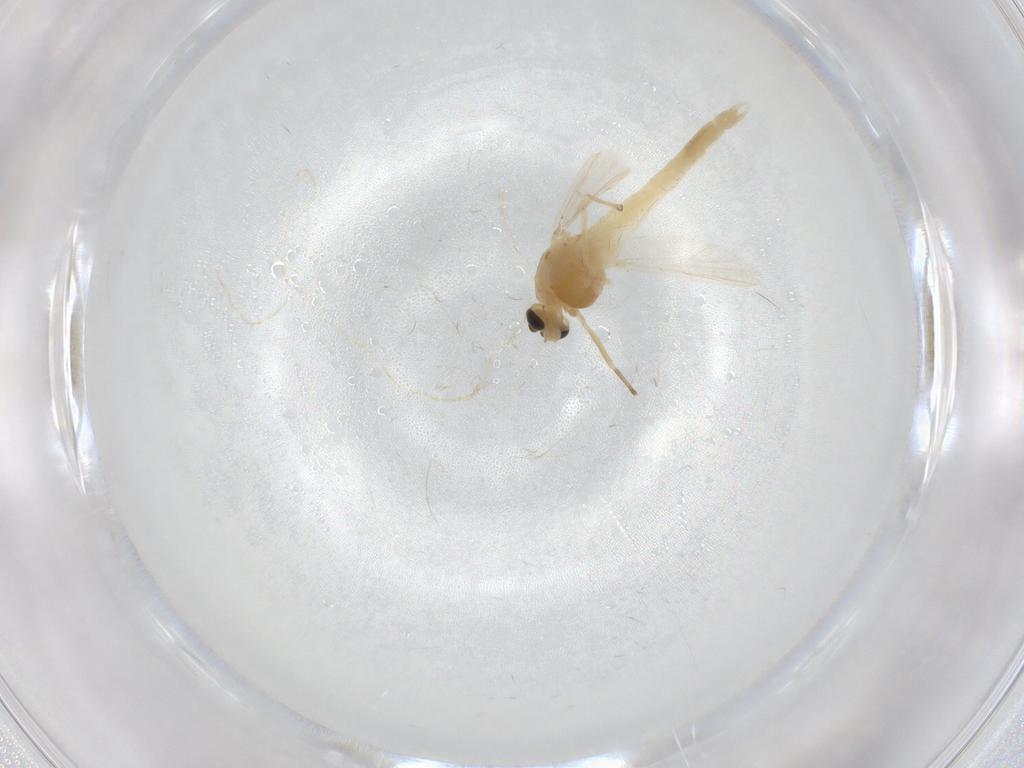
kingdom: Animalia
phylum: Arthropoda
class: Insecta
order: Diptera
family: Chironomidae
